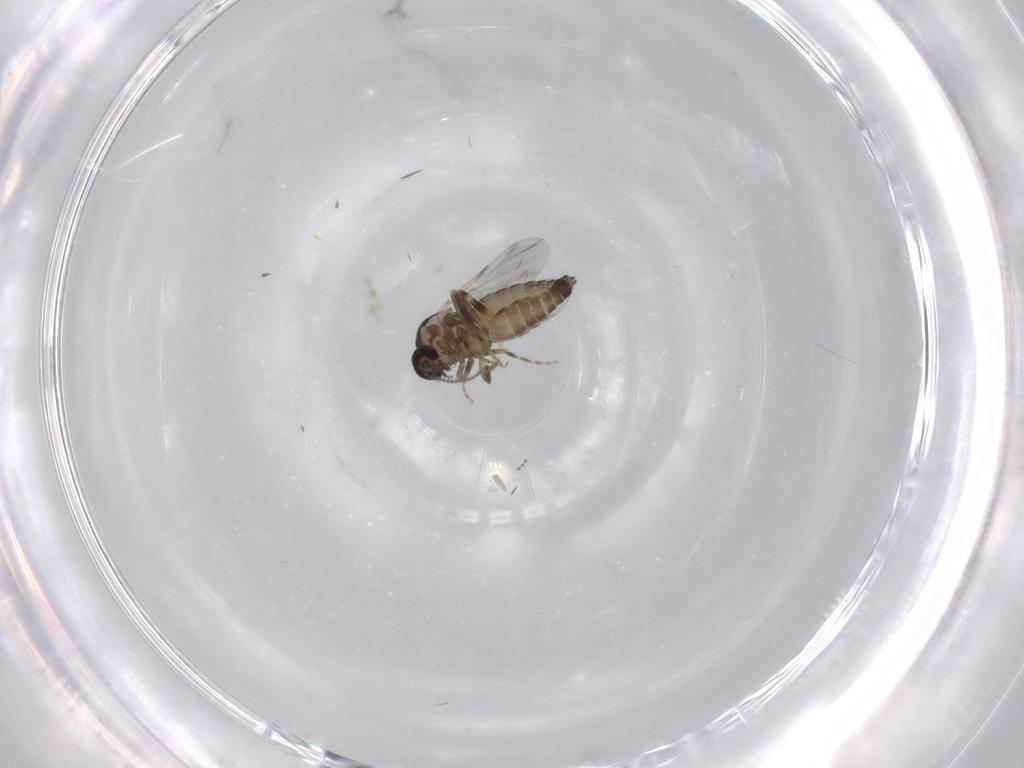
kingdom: Animalia
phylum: Arthropoda
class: Insecta
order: Diptera
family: Ceratopogonidae
